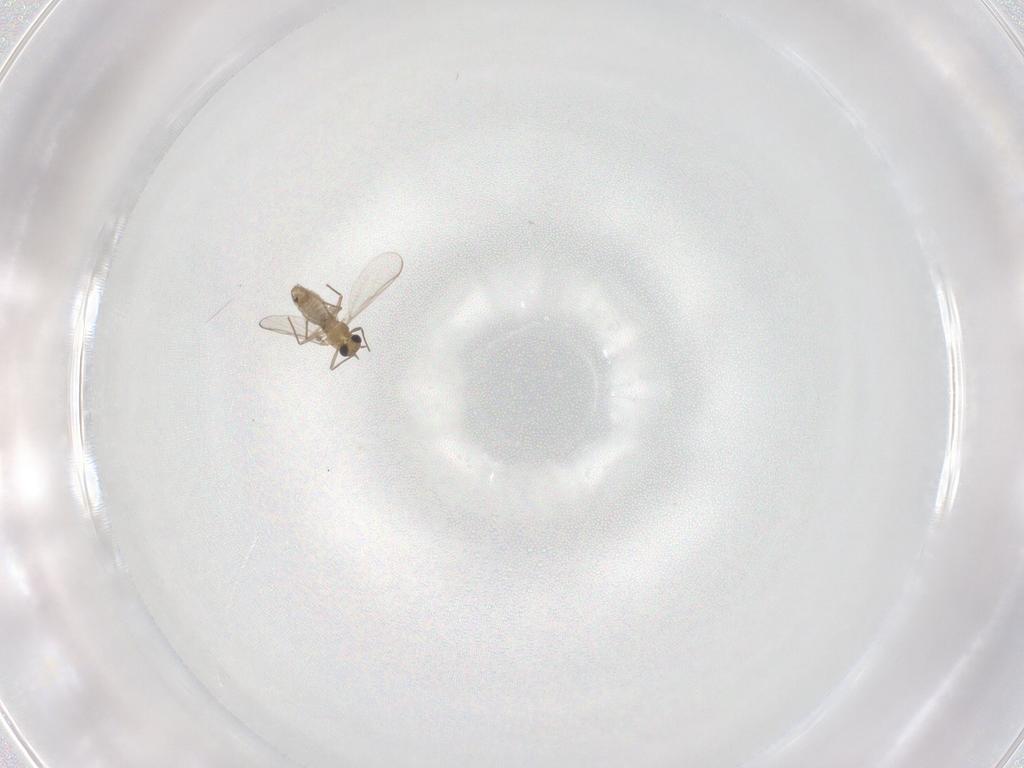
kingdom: Animalia
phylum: Arthropoda
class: Insecta
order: Diptera
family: Chironomidae
